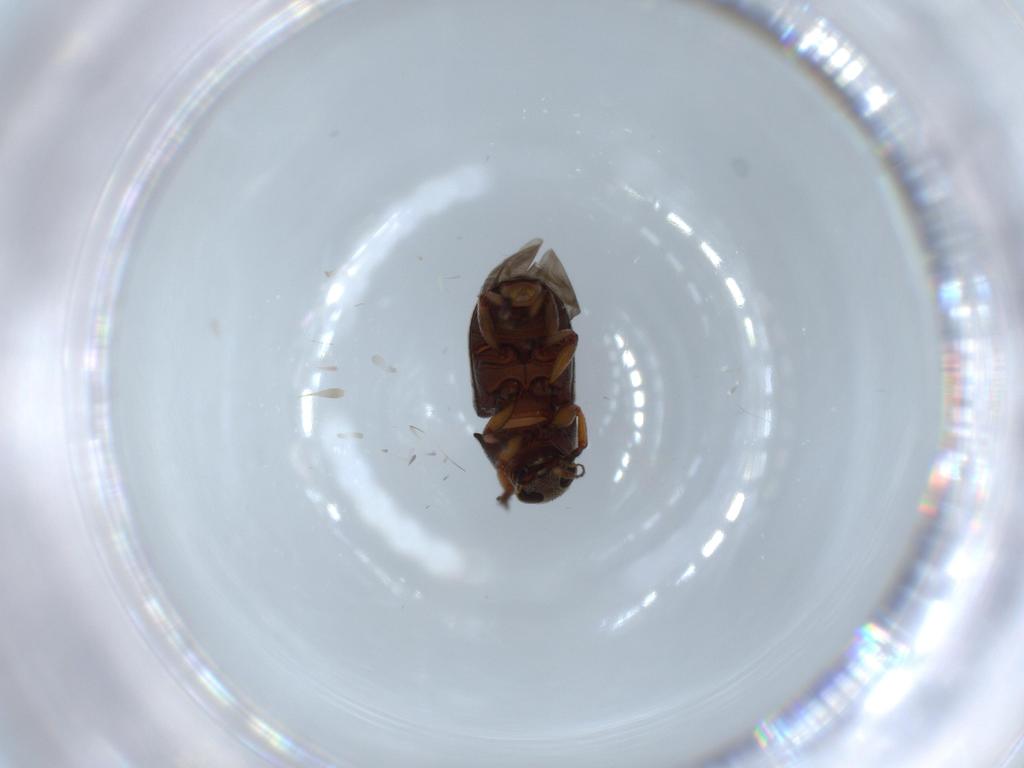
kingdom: Animalia
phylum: Arthropoda
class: Insecta
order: Coleoptera
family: Anthribidae
